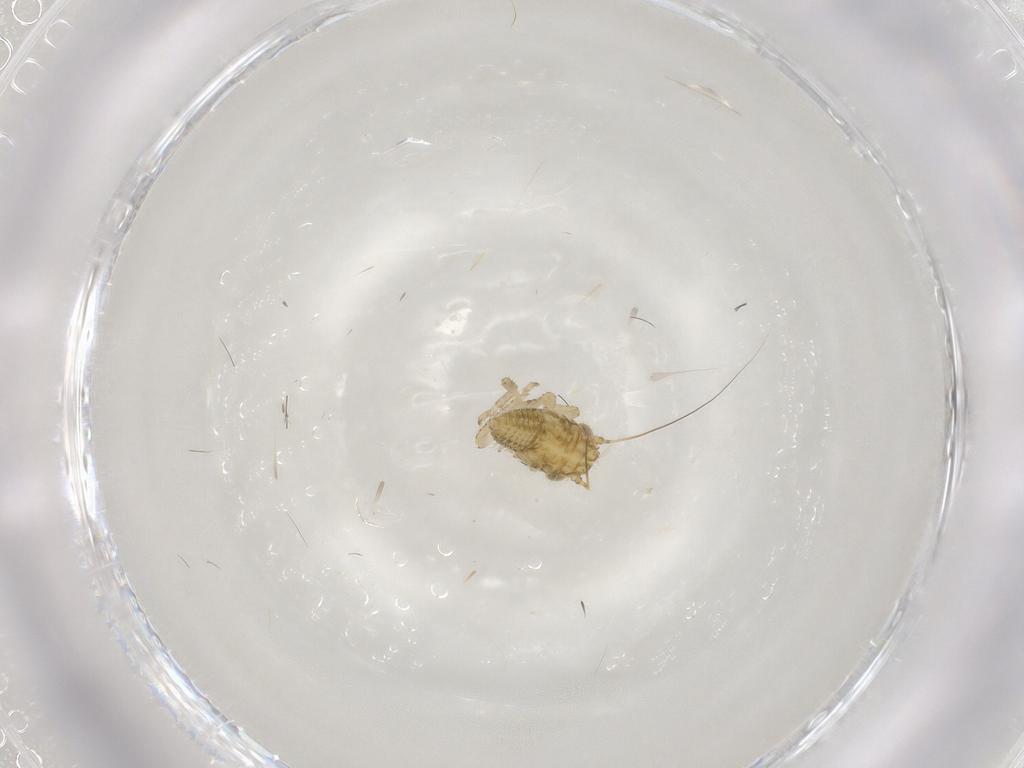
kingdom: Animalia
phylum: Arthropoda
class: Insecta
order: Hemiptera
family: Cicadellidae
